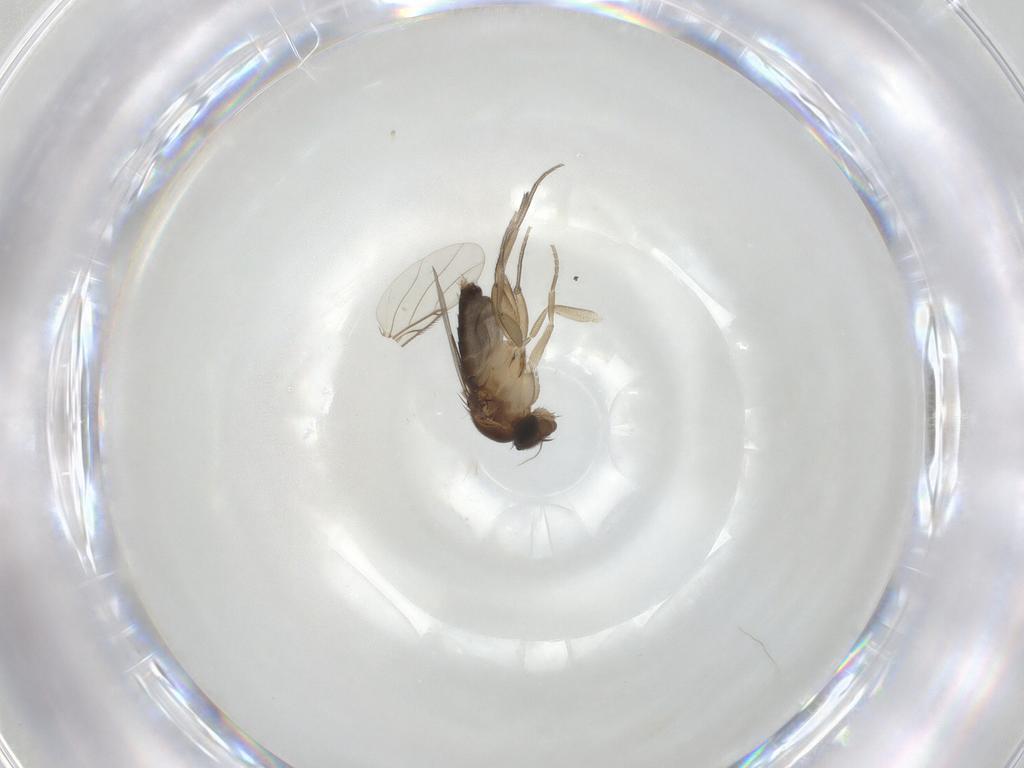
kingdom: Animalia
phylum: Arthropoda
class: Insecta
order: Diptera
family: Phoridae
